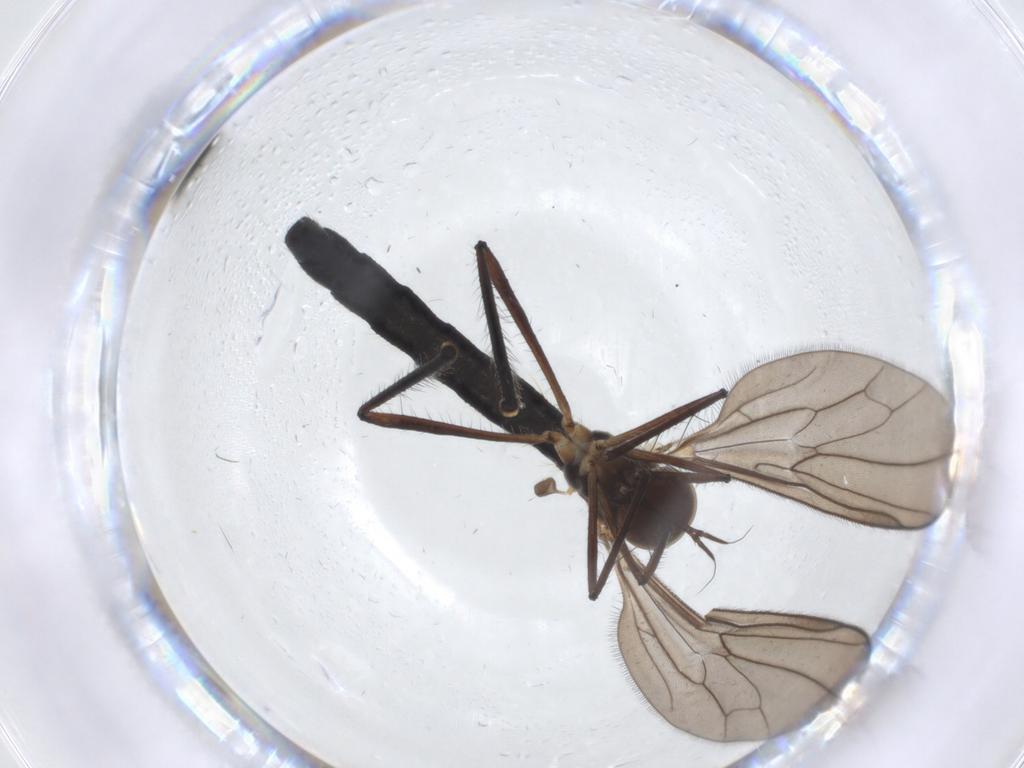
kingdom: Animalia
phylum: Arthropoda
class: Insecta
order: Diptera
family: Hybotidae
